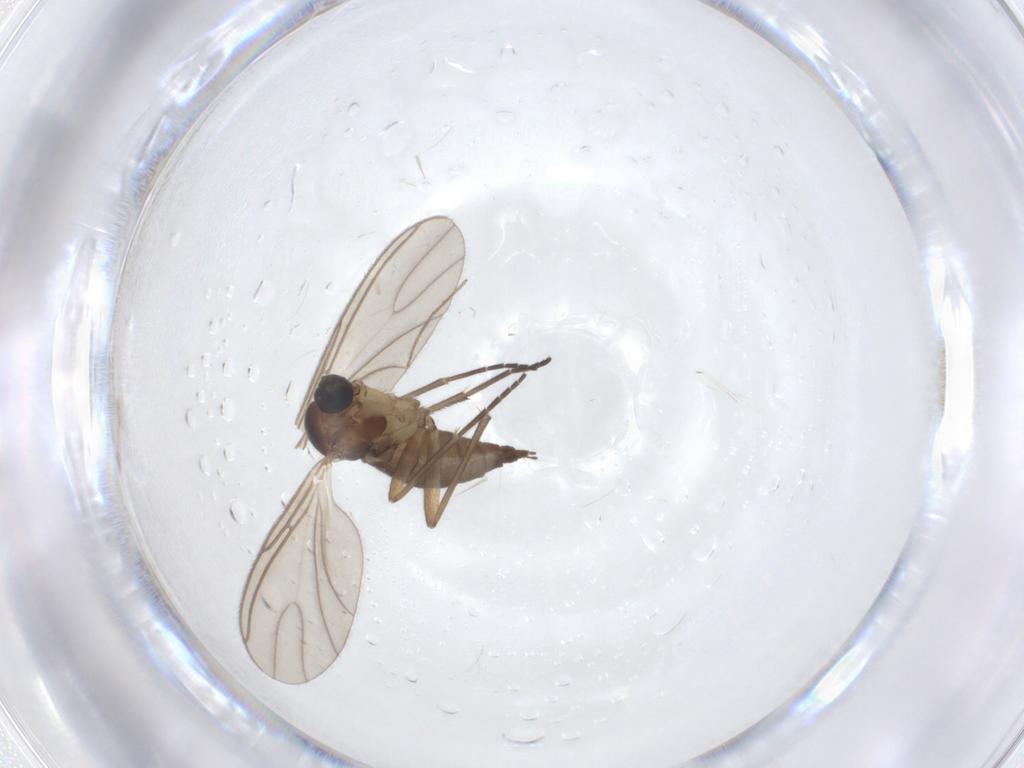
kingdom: Animalia
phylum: Arthropoda
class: Insecta
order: Diptera
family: Sciaridae
